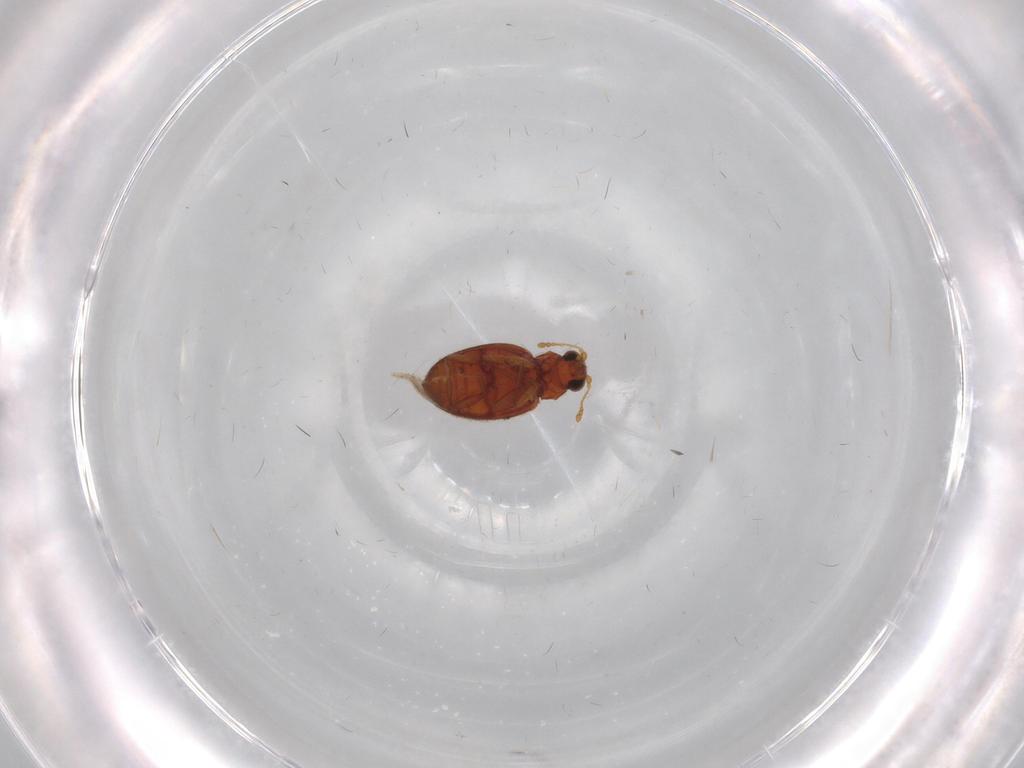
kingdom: Animalia
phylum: Arthropoda
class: Insecta
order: Coleoptera
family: Latridiidae
